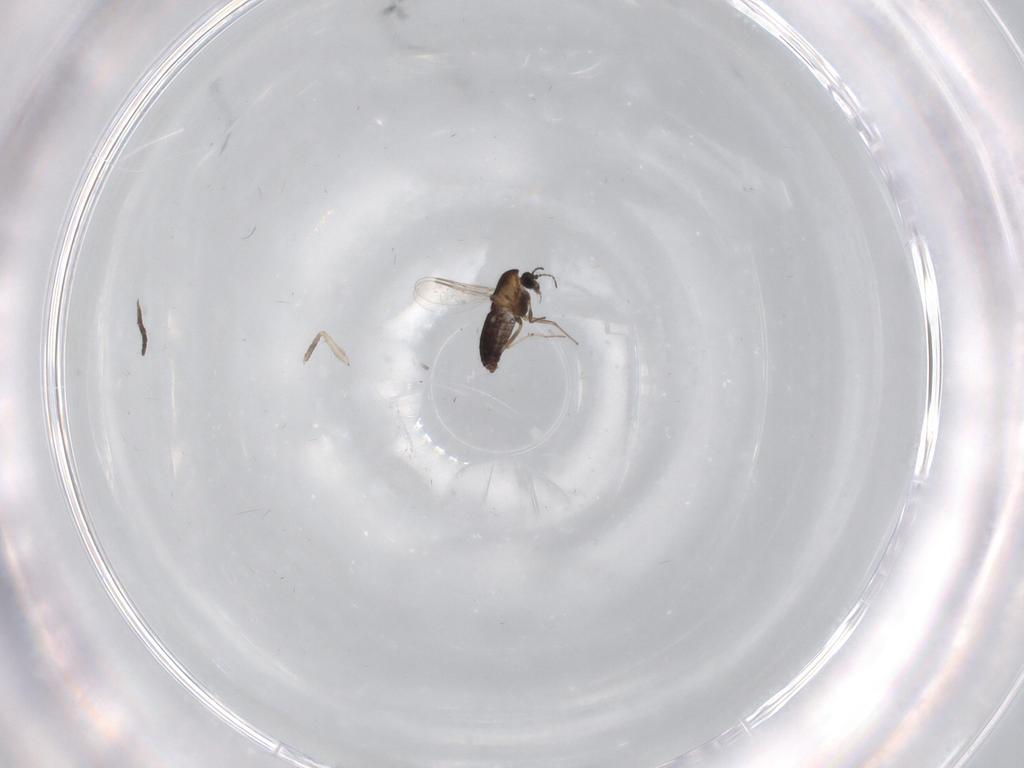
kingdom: Animalia
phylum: Arthropoda
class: Insecta
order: Diptera
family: Chironomidae
